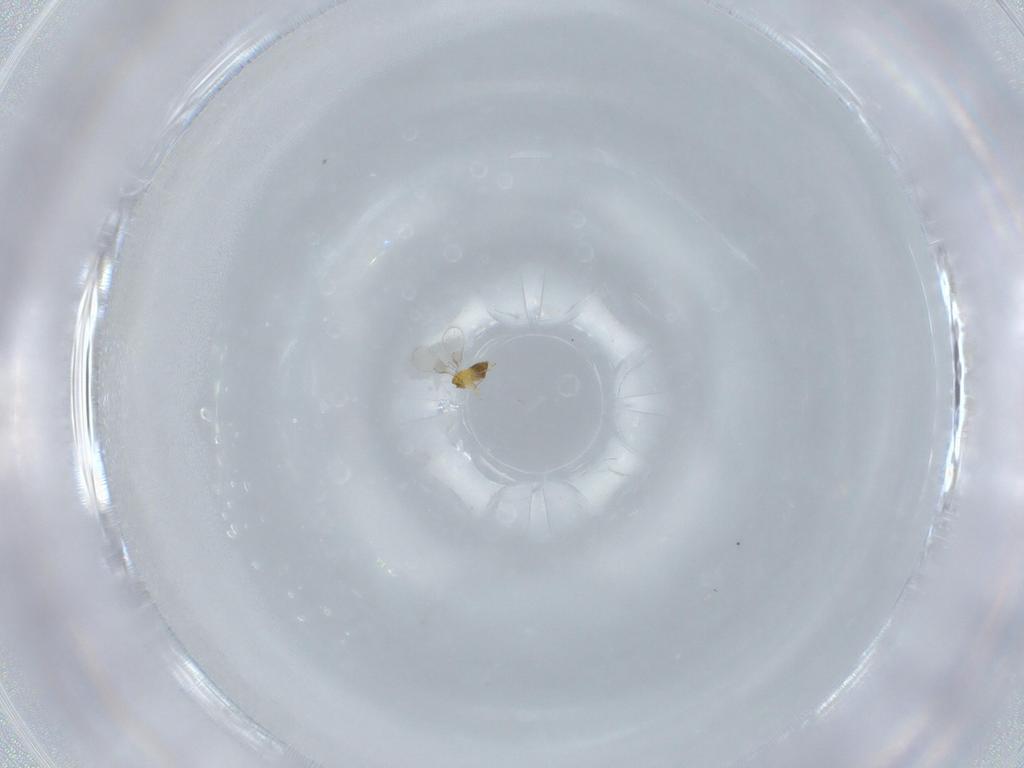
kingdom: Animalia
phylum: Arthropoda
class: Insecta
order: Hymenoptera
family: Trichogrammatidae
